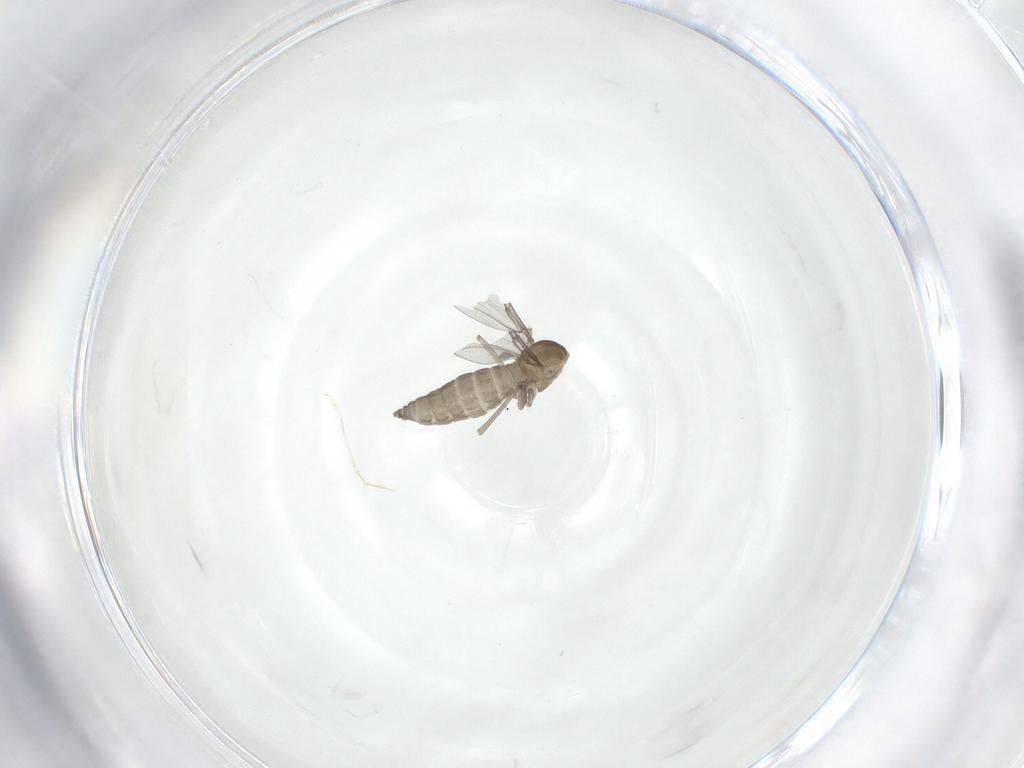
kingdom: Animalia
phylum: Arthropoda
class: Insecta
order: Diptera
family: Cecidomyiidae
